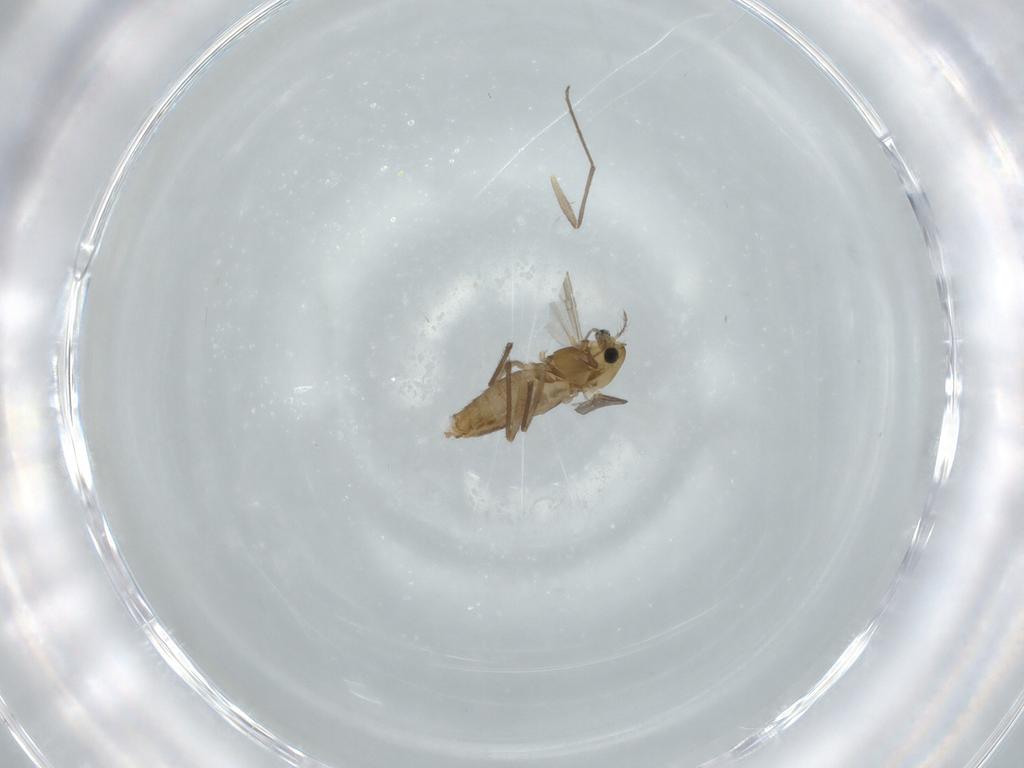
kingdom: Animalia
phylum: Arthropoda
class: Insecta
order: Diptera
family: Chironomidae
